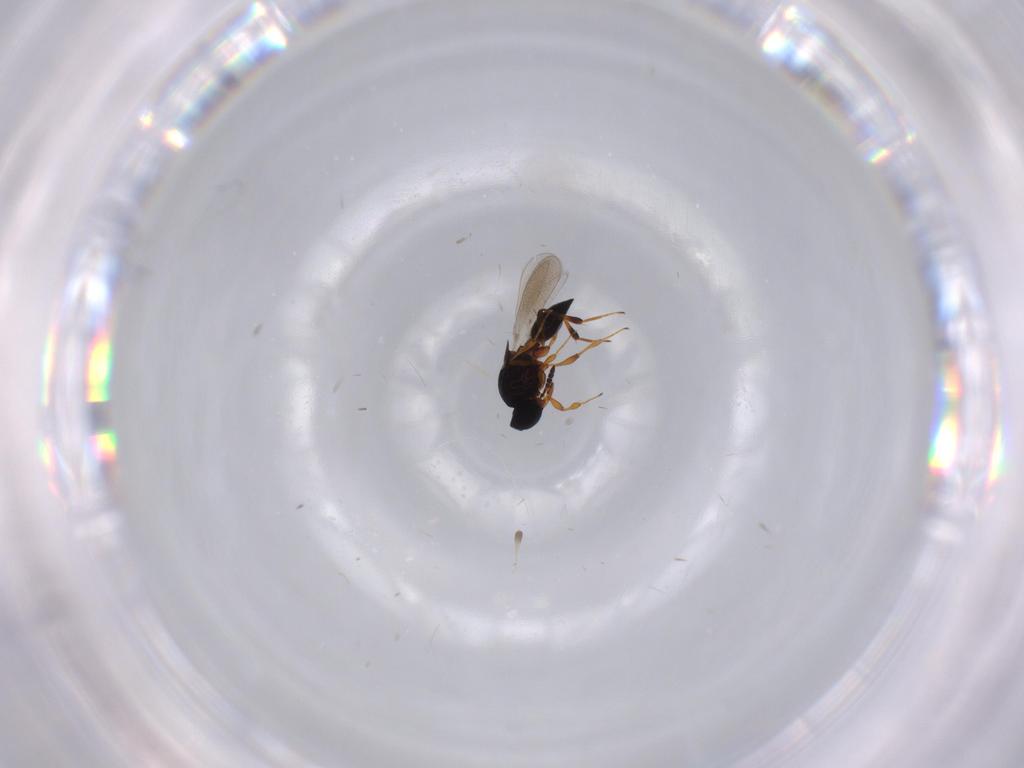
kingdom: Animalia
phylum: Arthropoda
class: Insecta
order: Hymenoptera
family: Platygastridae
